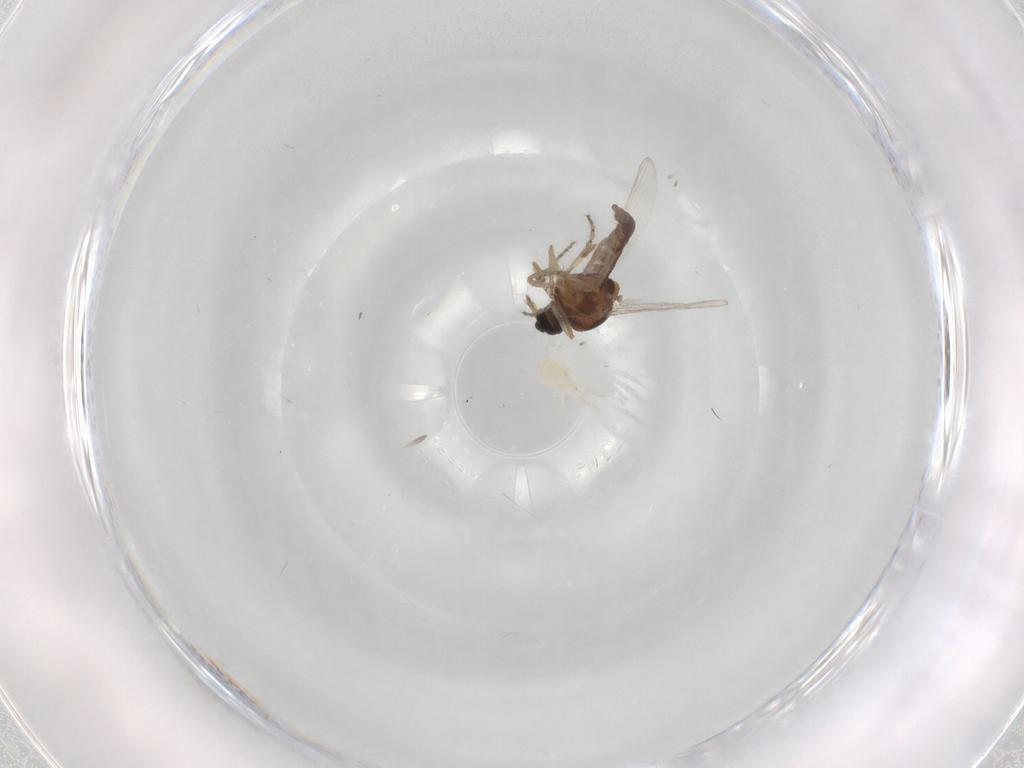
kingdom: Animalia
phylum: Arthropoda
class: Insecta
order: Diptera
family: Ceratopogonidae
